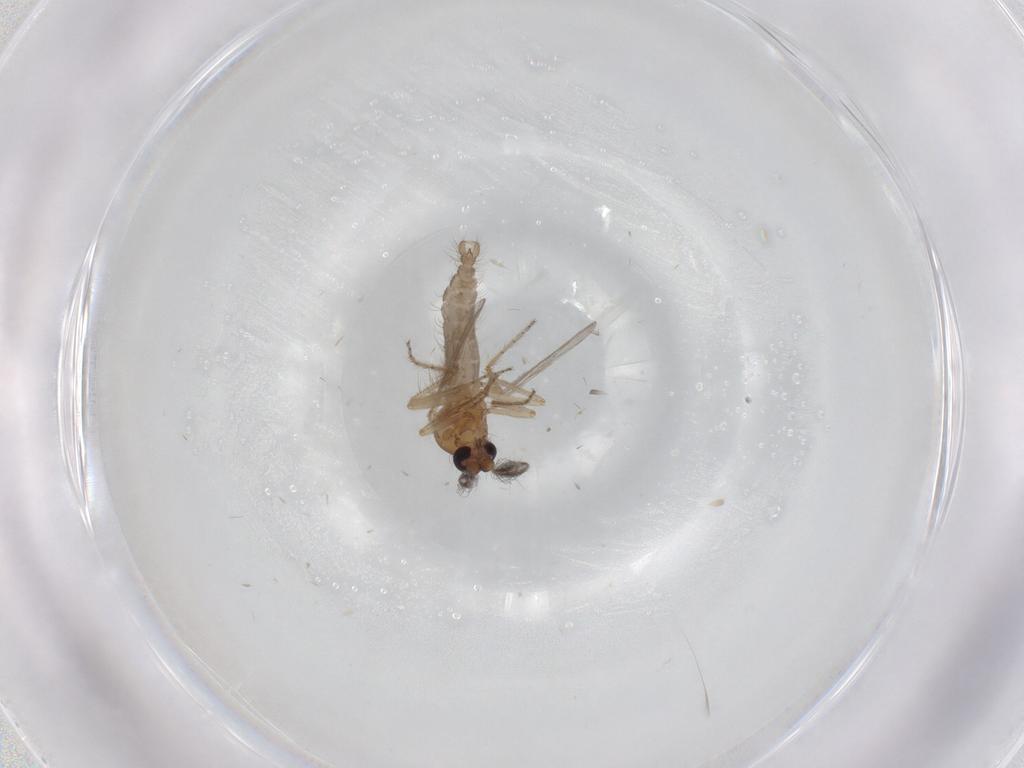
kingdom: Animalia
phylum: Arthropoda
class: Insecta
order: Diptera
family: Ceratopogonidae
